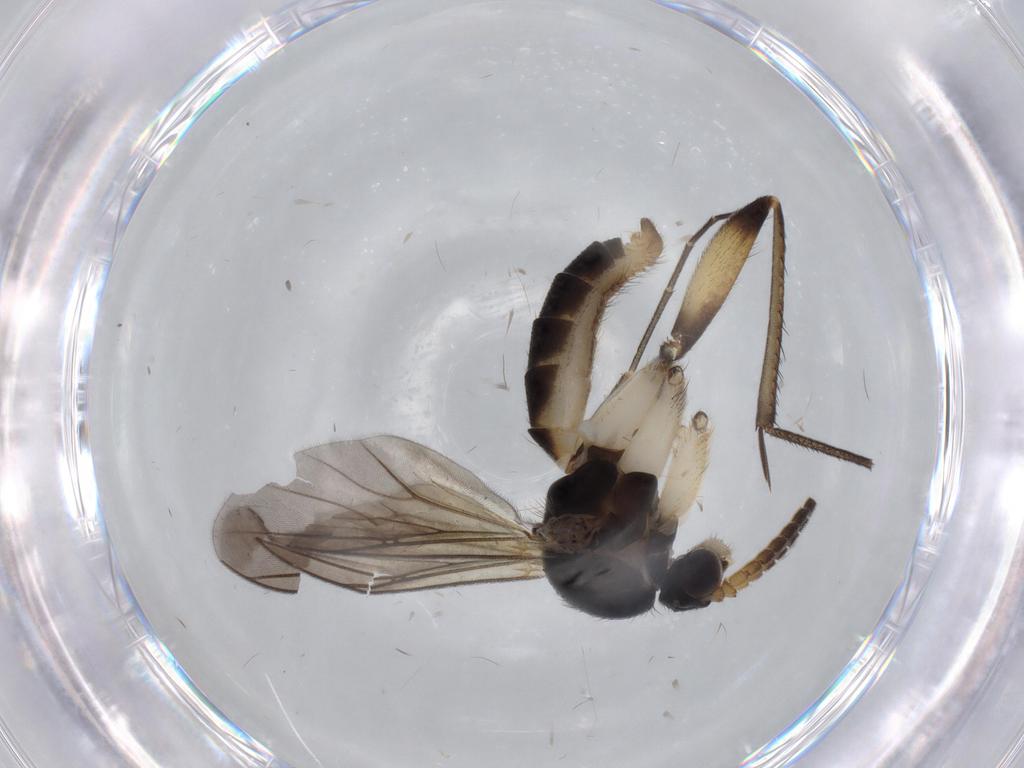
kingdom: Animalia
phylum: Arthropoda
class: Insecta
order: Diptera
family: Phoridae
